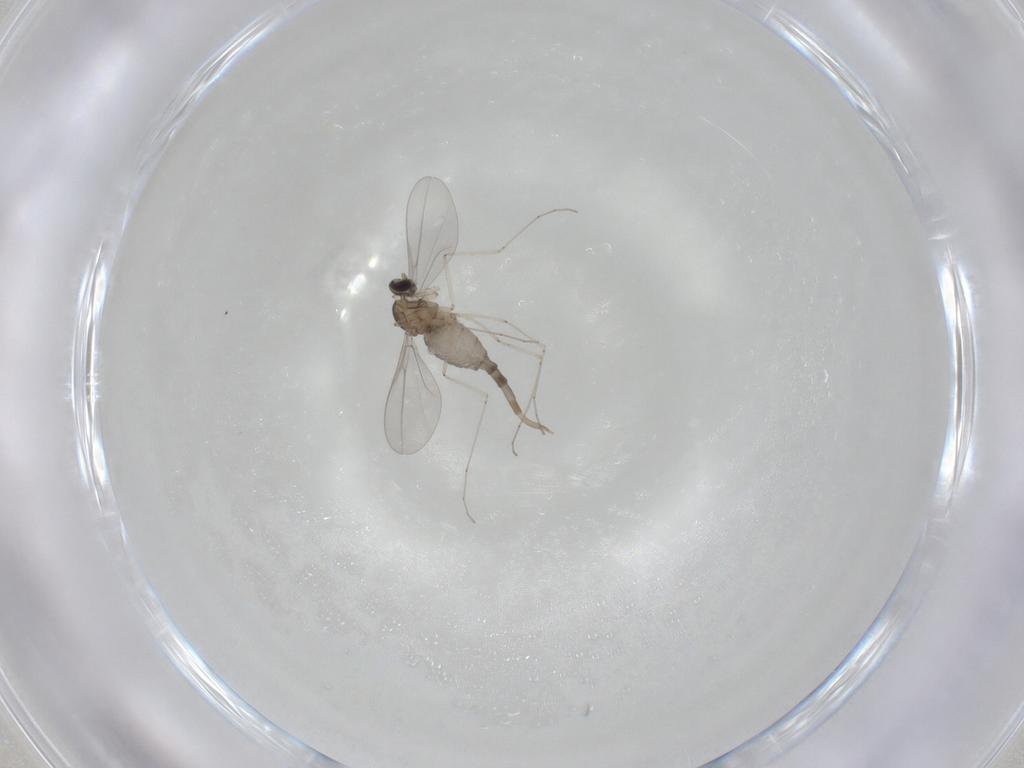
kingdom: Animalia
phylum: Arthropoda
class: Insecta
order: Diptera
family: Cecidomyiidae
